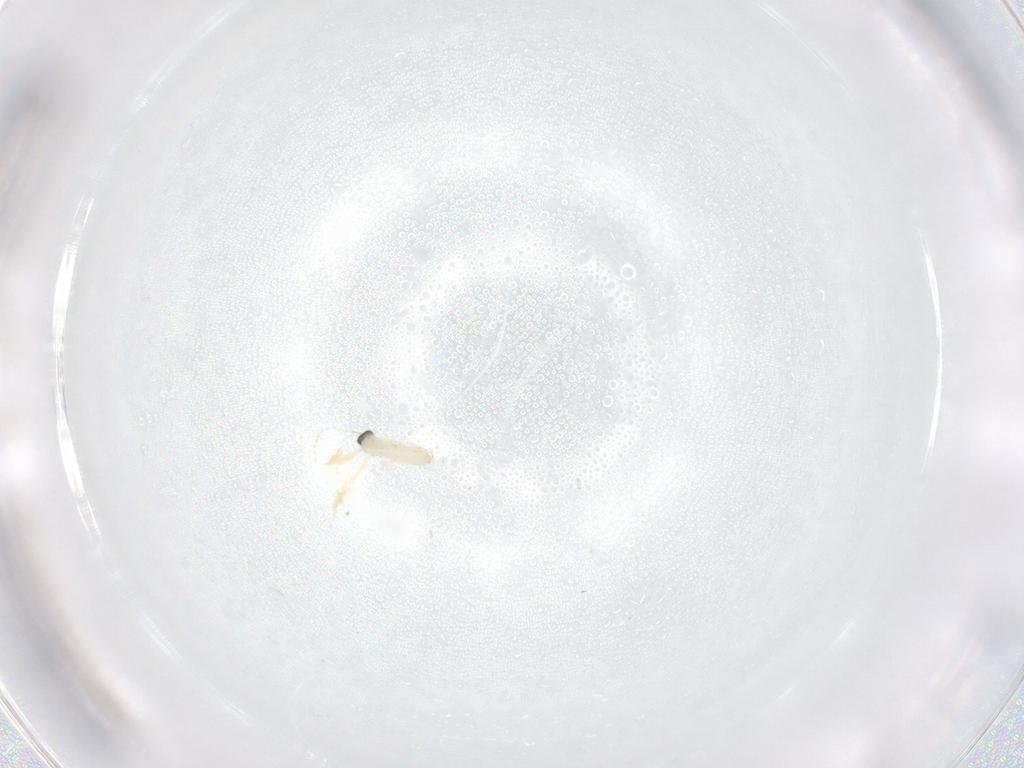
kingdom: Animalia
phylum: Arthropoda
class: Insecta
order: Diptera
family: Cecidomyiidae
